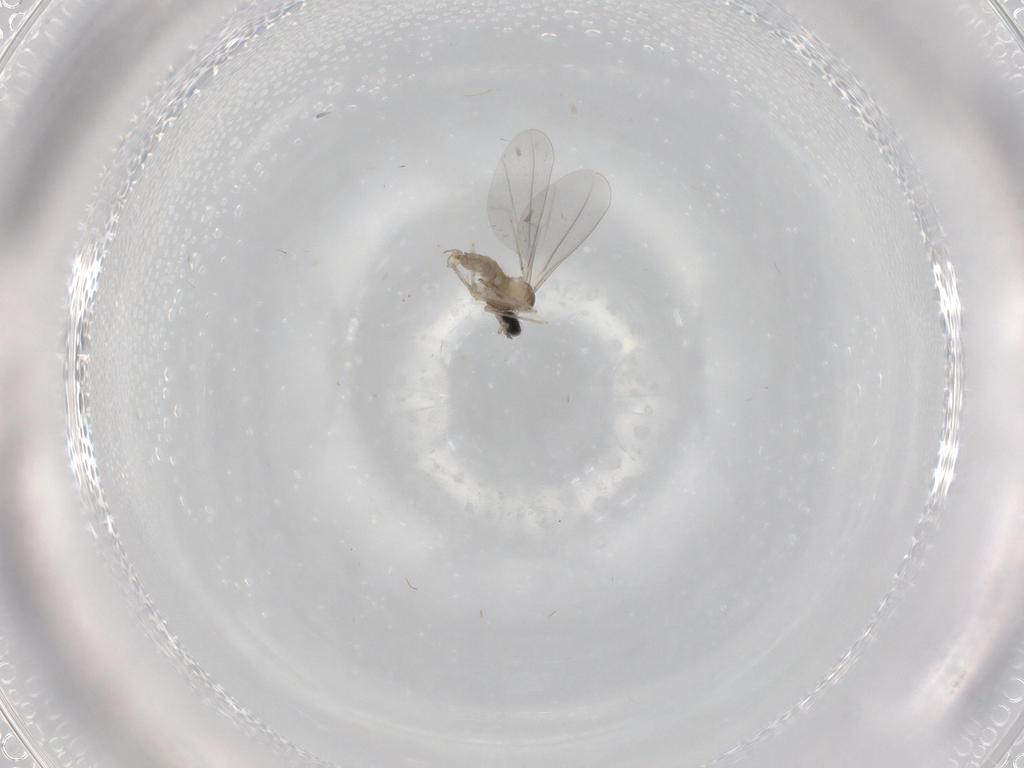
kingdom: Animalia
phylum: Arthropoda
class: Insecta
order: Diptera
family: Cecidomyiidae
